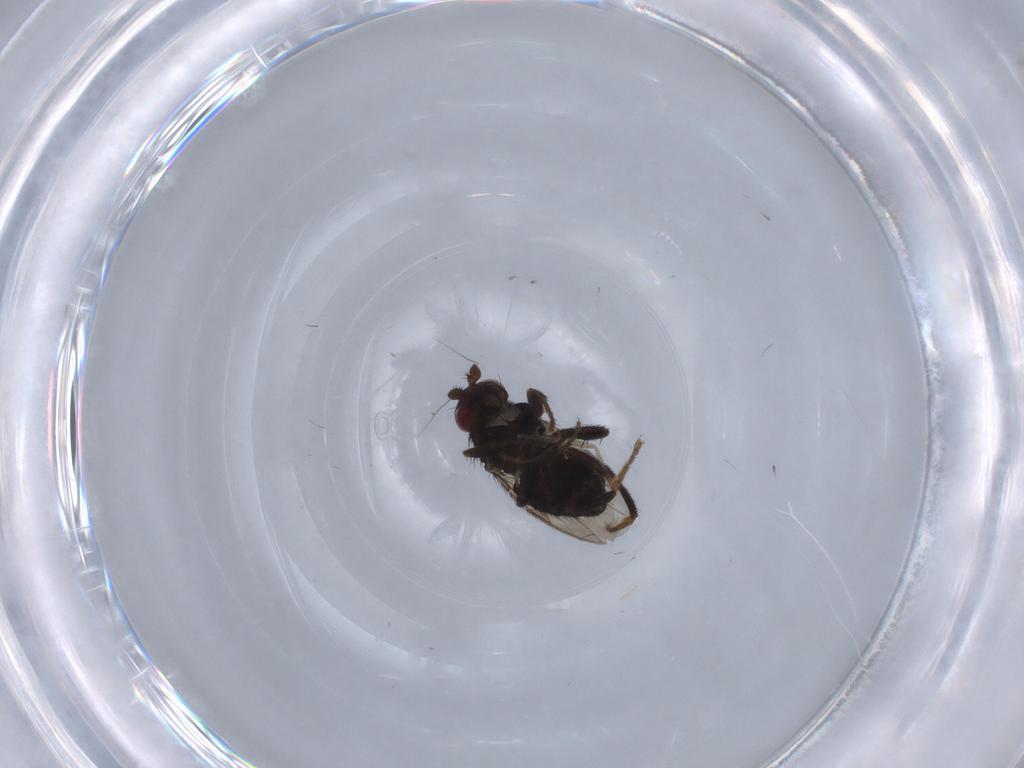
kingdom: Animalia
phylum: Arthropoda
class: Insecta
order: Diptera
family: Sphaeroceridae
